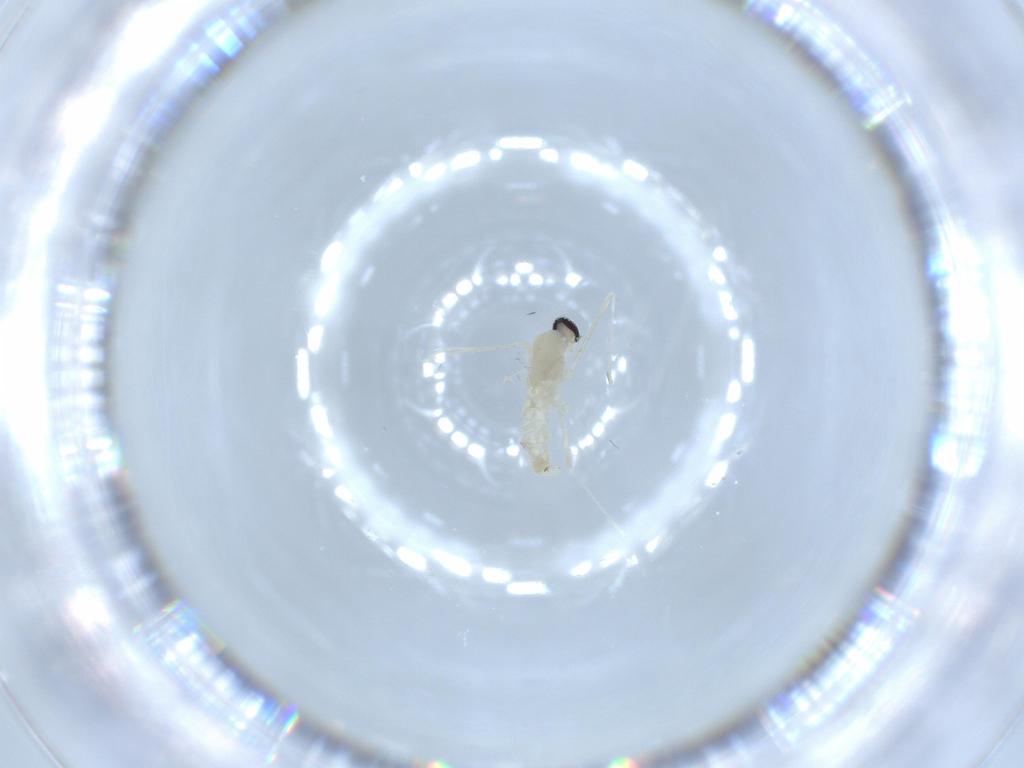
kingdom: Animalia
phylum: Arthropoda
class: Insecta
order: Diptera
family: Cecidomyiidae
